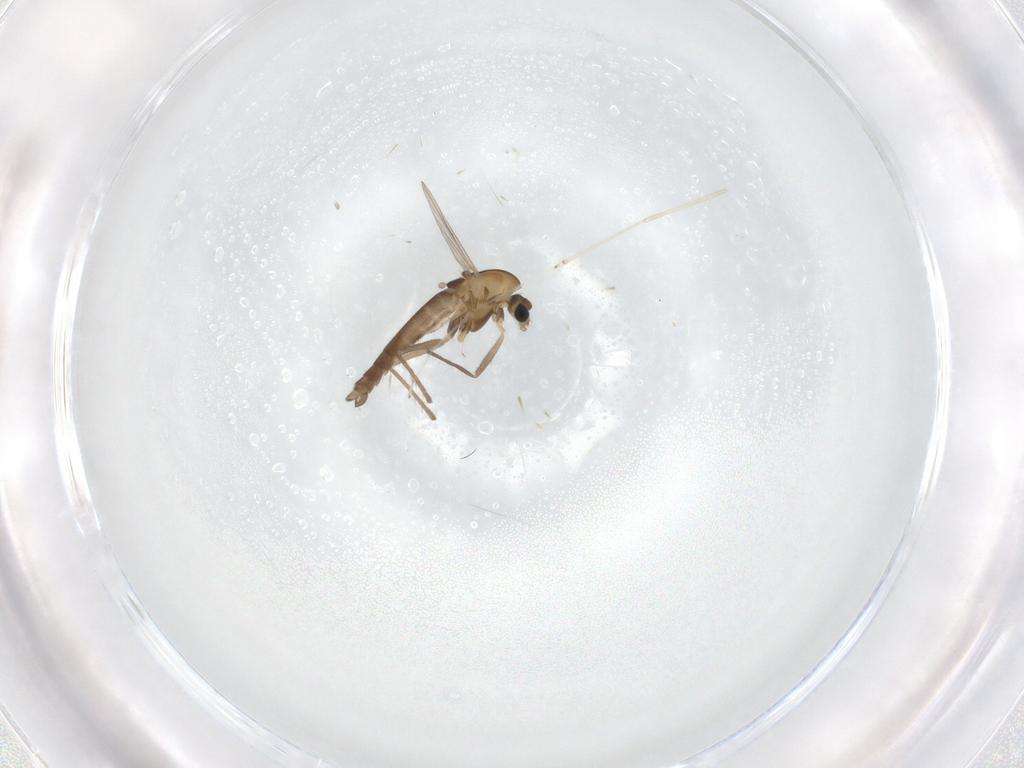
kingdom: Animalia
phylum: Arthropoda
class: Insecta
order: Diptera
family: Chironomidae
